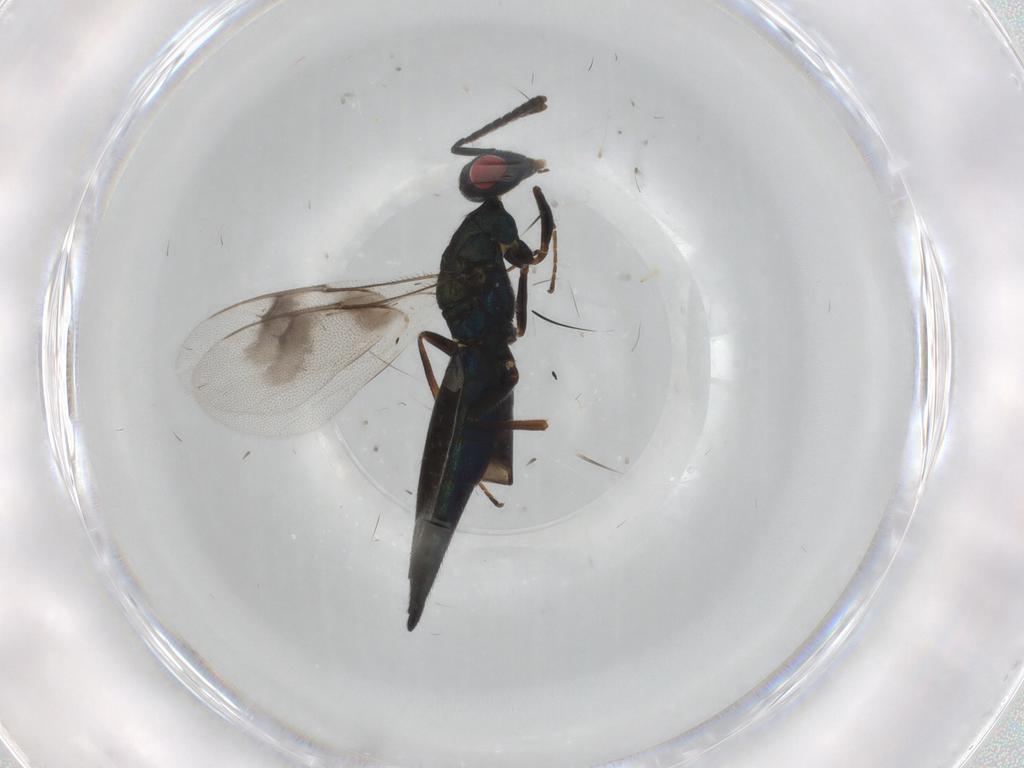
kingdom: Animalia
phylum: Arthropoda
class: Insecta
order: Hymenoptera
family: Pteromalidae
